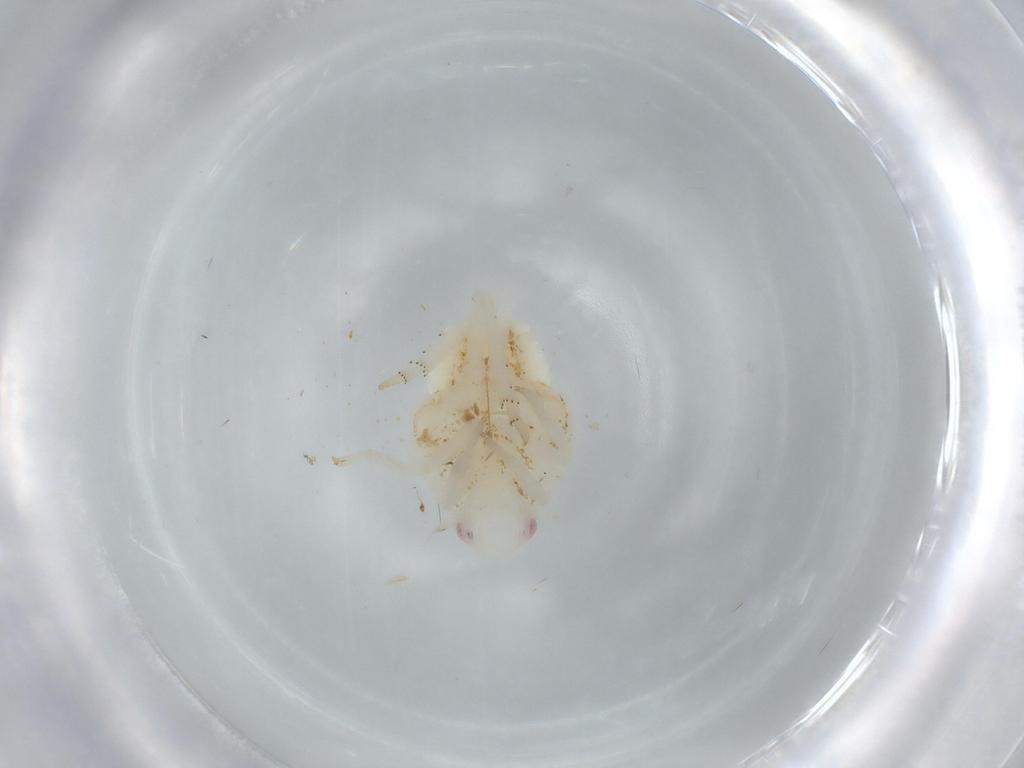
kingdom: Animalia
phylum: Arthropoda
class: Insecta
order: Hemiptera
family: Flatidae
